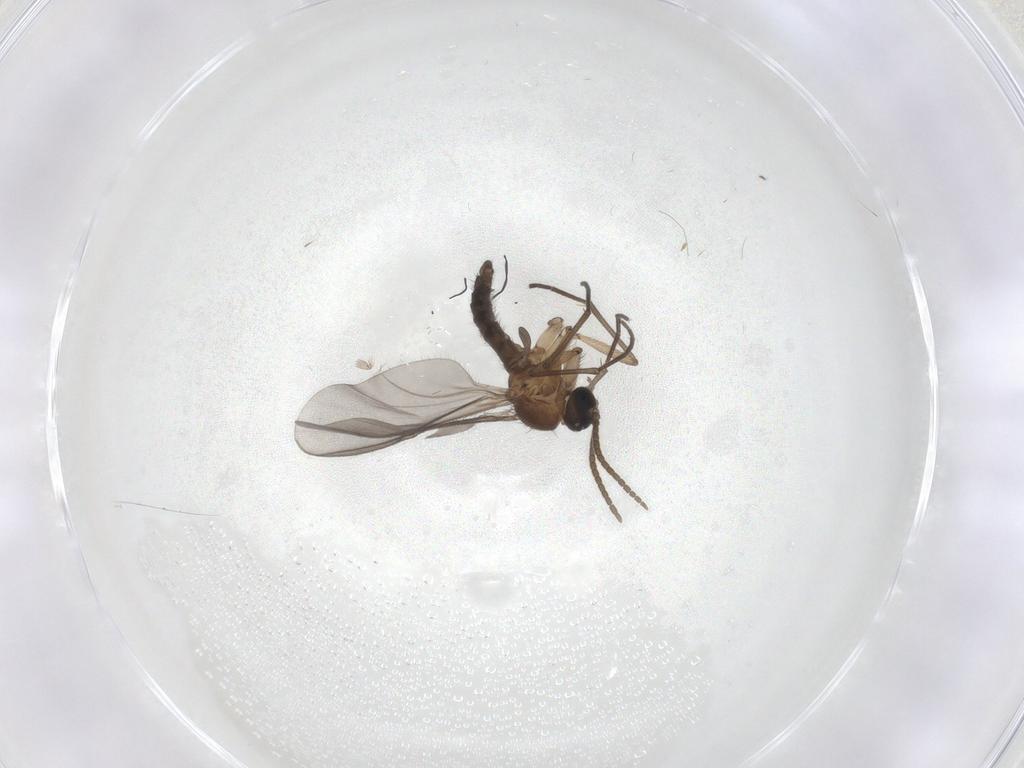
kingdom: Animalia
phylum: Arthropoda
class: Insecta
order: Diptera
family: Sciaridae
